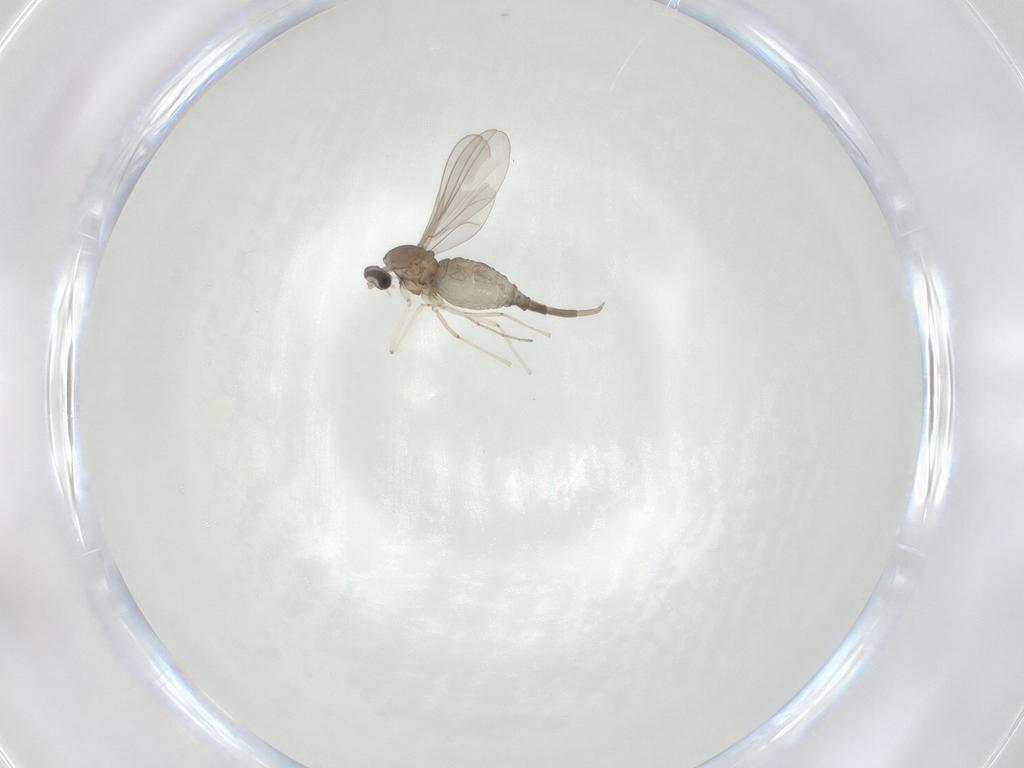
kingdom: Animalia
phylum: Arthropoda
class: Insecta
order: Diptera
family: Cecidomyiidae
